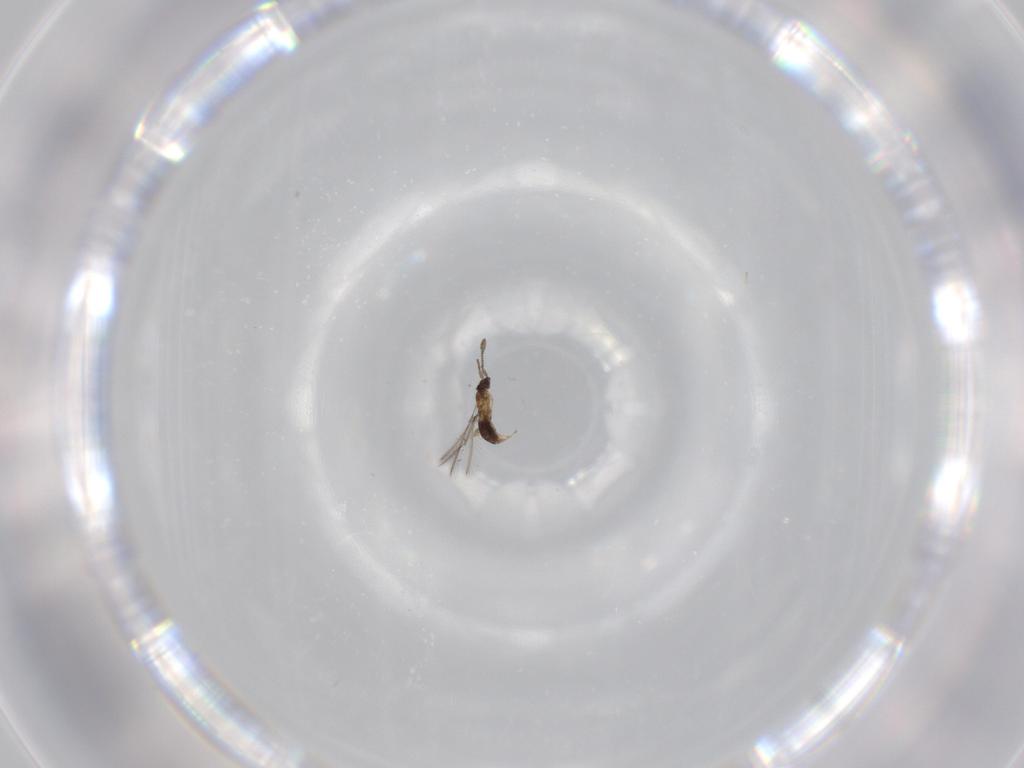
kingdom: Animalia
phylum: Arthropoda
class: Insecta
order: Hymenoptera
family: Mymaridae
